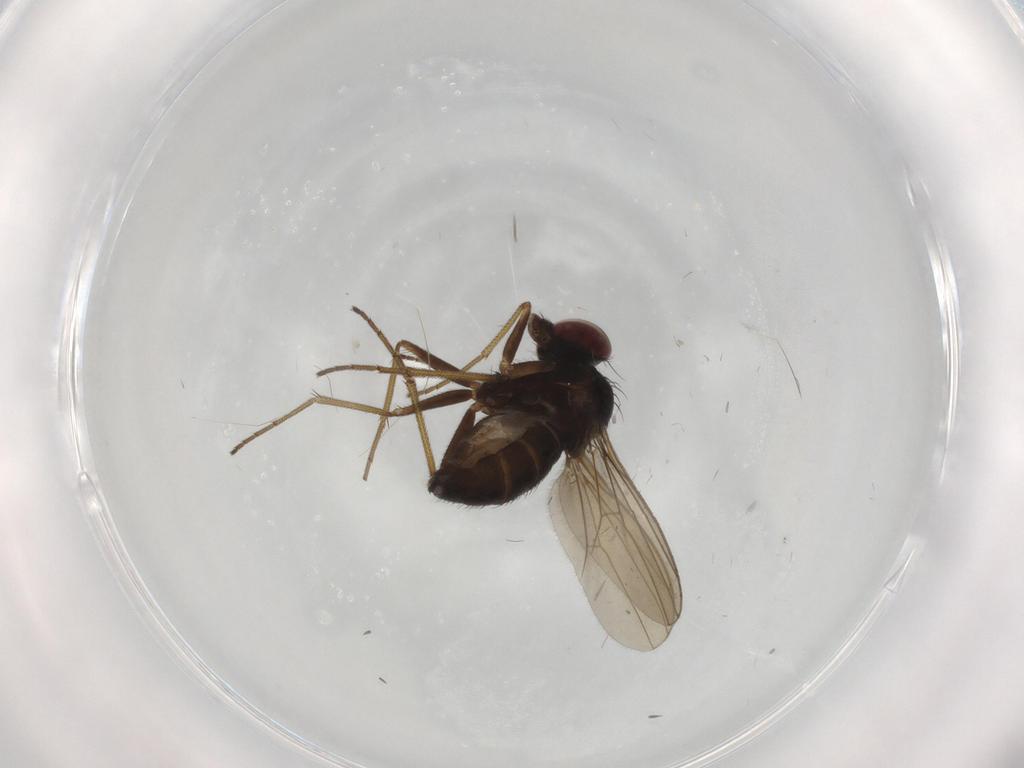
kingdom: Animalia
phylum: Arthropoda
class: Insecta
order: Diptera
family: Dolichopodidae
